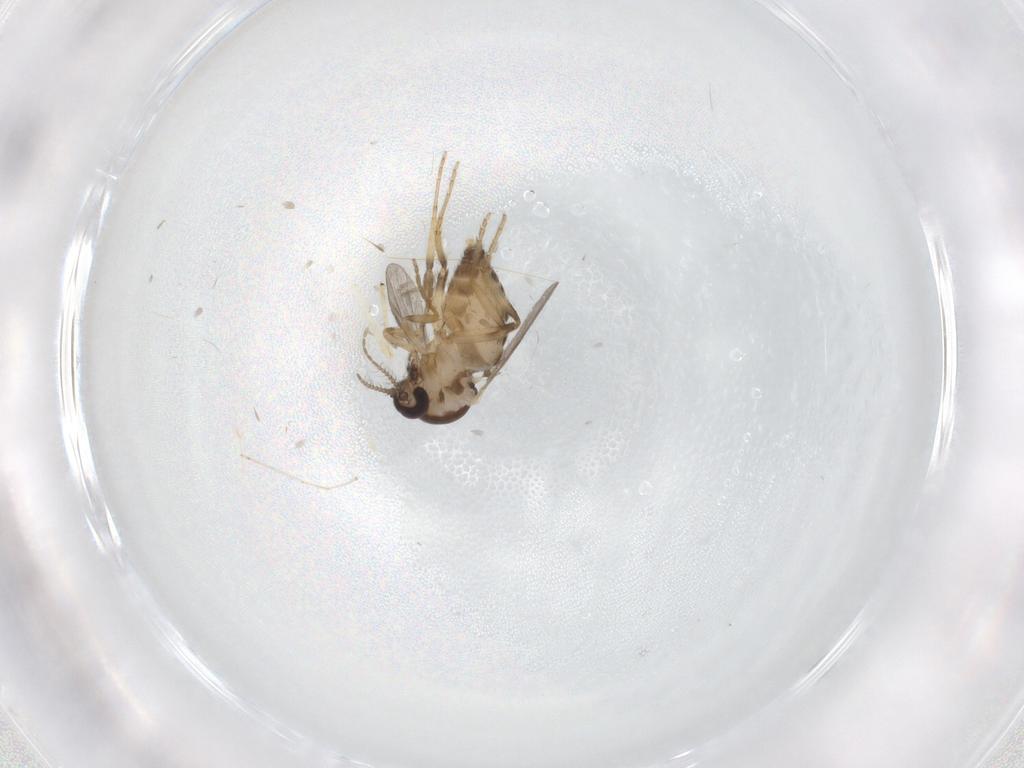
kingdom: Animalia
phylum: Arthropoda
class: Insecta
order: Diptera
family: Ceratopogonidae
